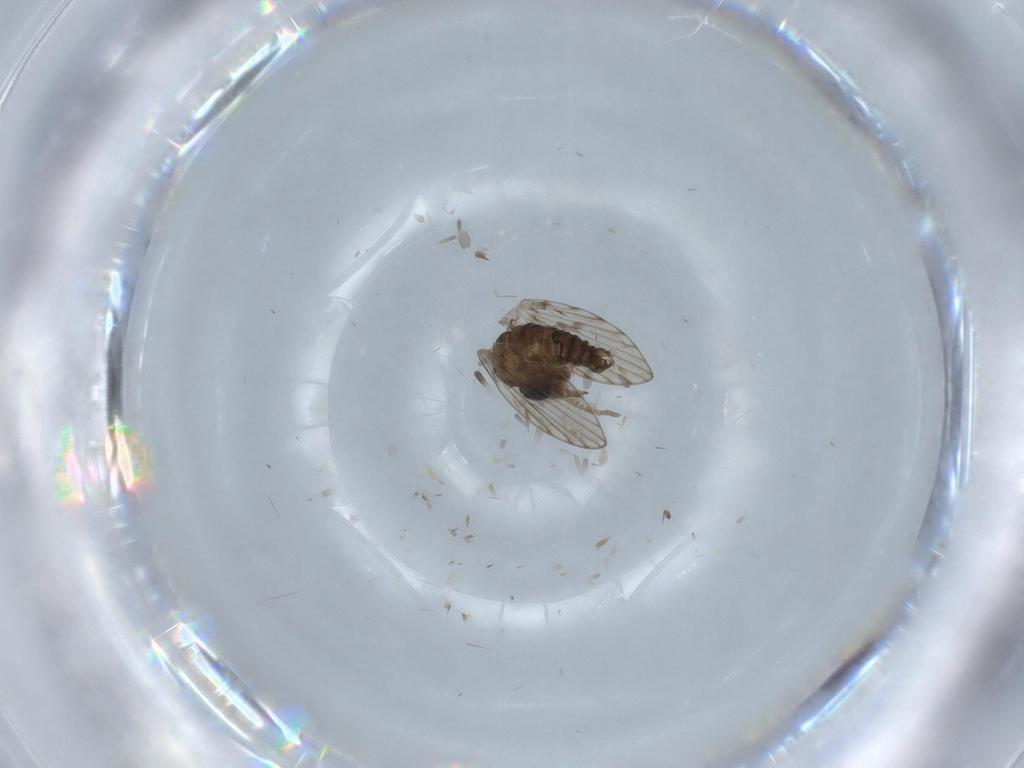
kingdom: Animalia
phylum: Arthropoda
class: Insecta
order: Diptera
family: Psychodidae
